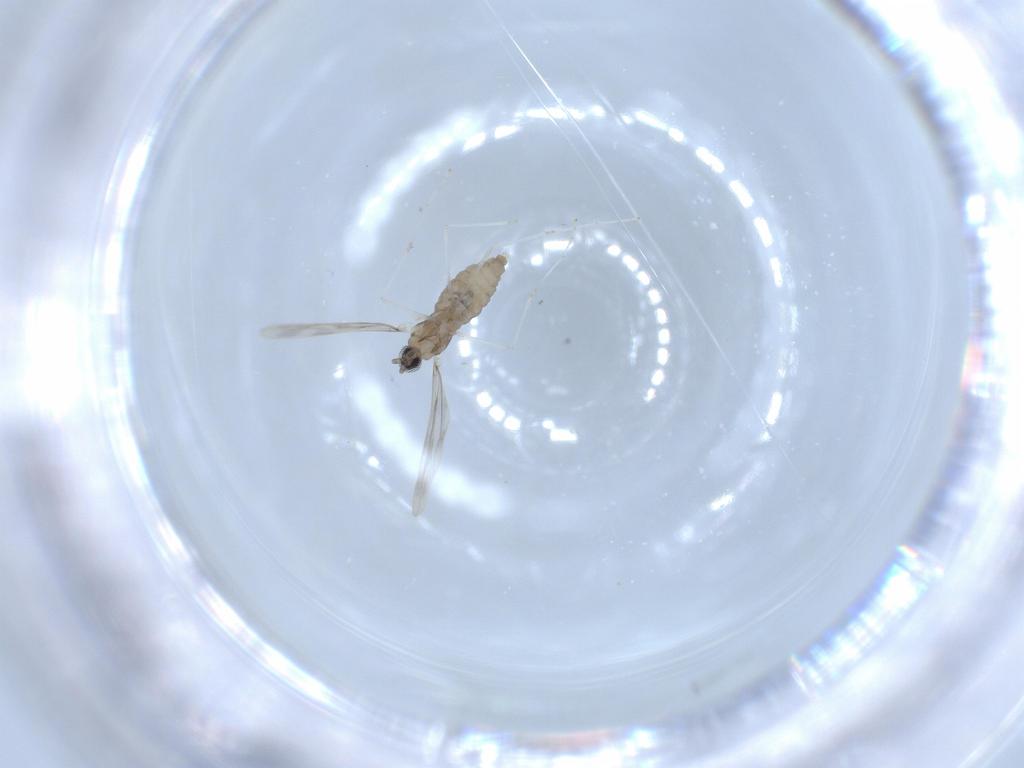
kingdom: Animalia
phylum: Arthropoda
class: Insecta
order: Diptera
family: Cecidomyiidae
